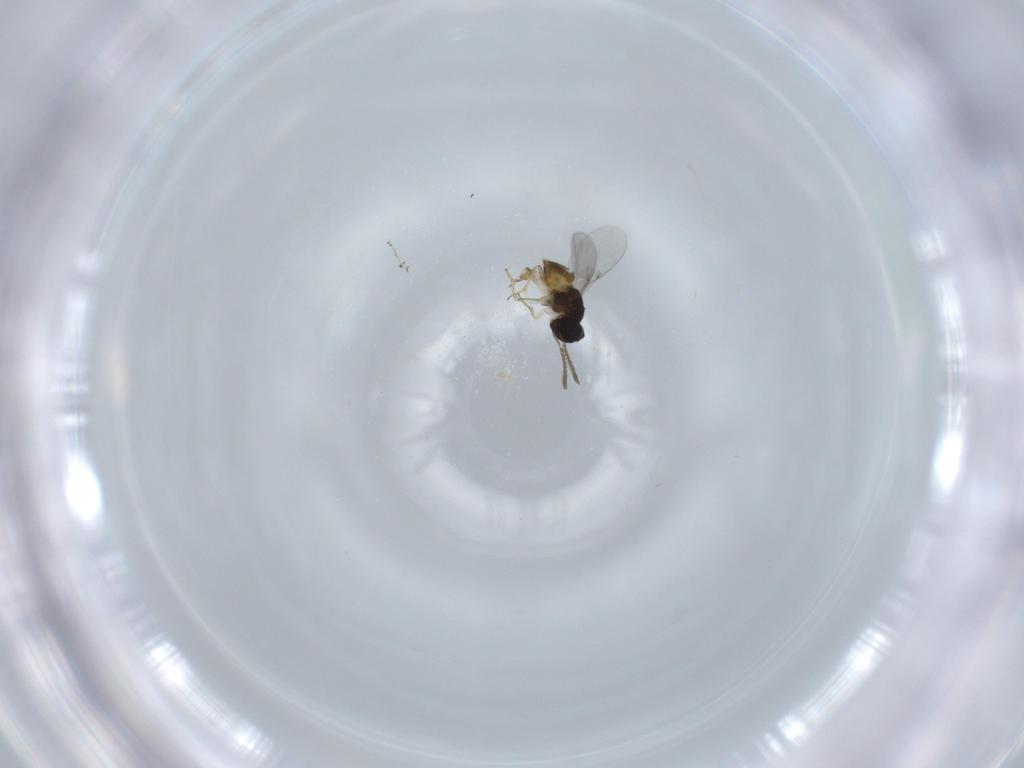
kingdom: Animalia
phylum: Arthropoda
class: Insecta
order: Hymenoptera
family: Encyrtidae
